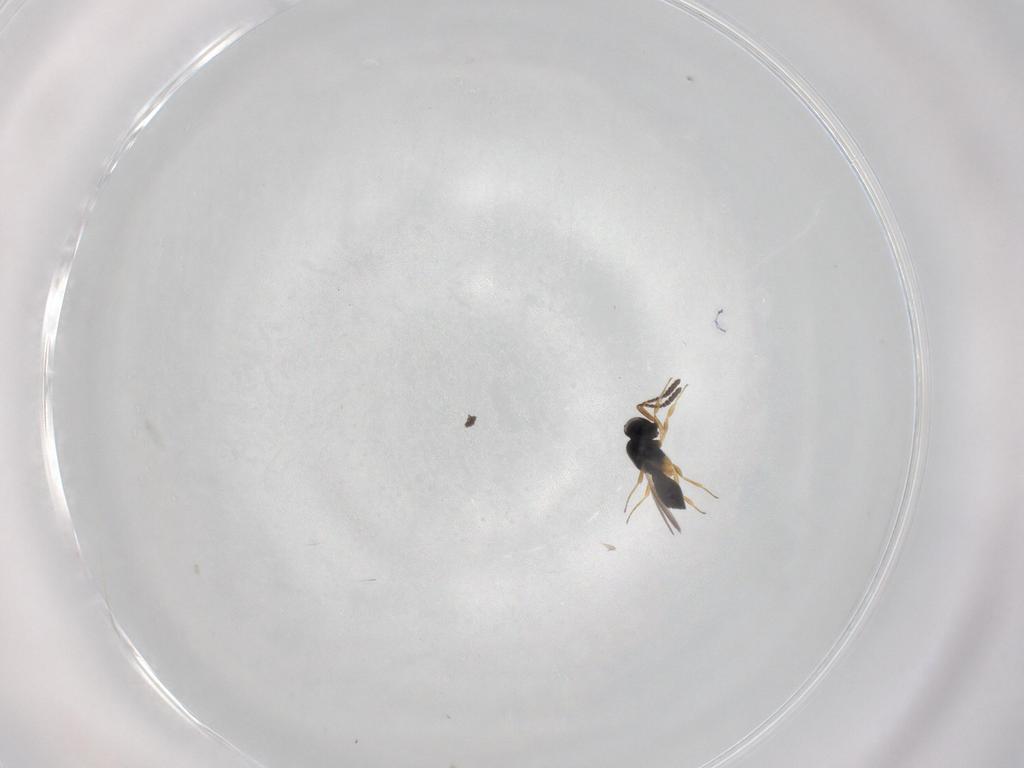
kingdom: Animalia
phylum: Arthropoda
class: Insecta
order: Hymenoptera
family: Scelionidae
